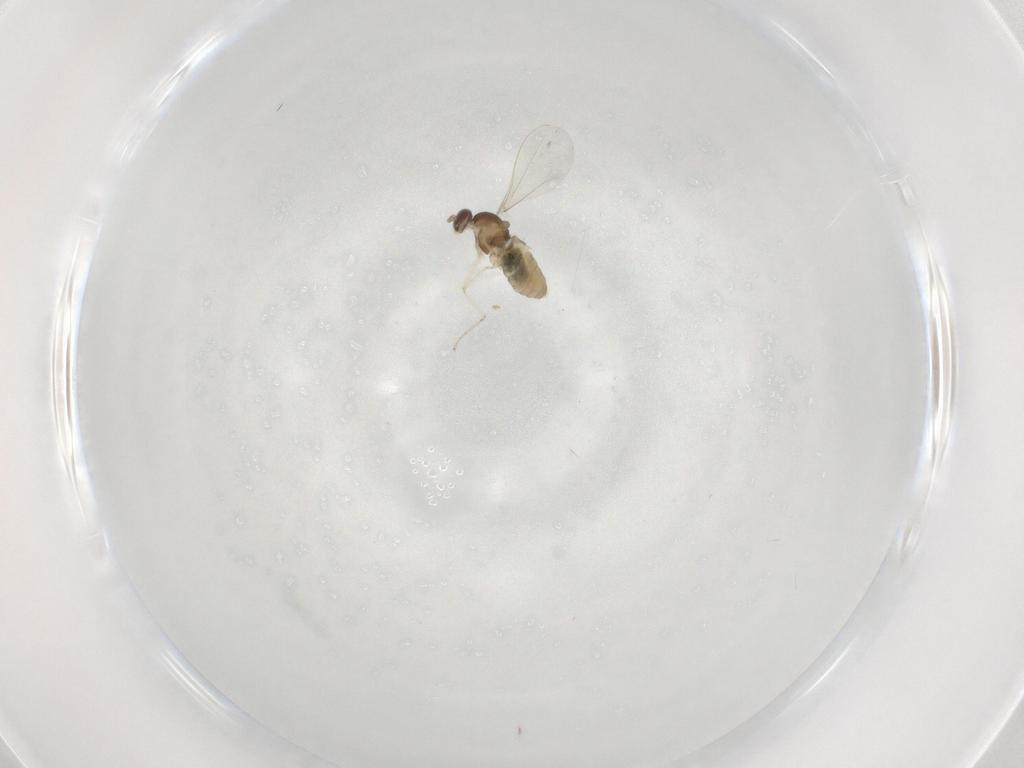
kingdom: Animalia
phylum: Arthropoda
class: Insecta
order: Diptera
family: Cecidomyiidae
